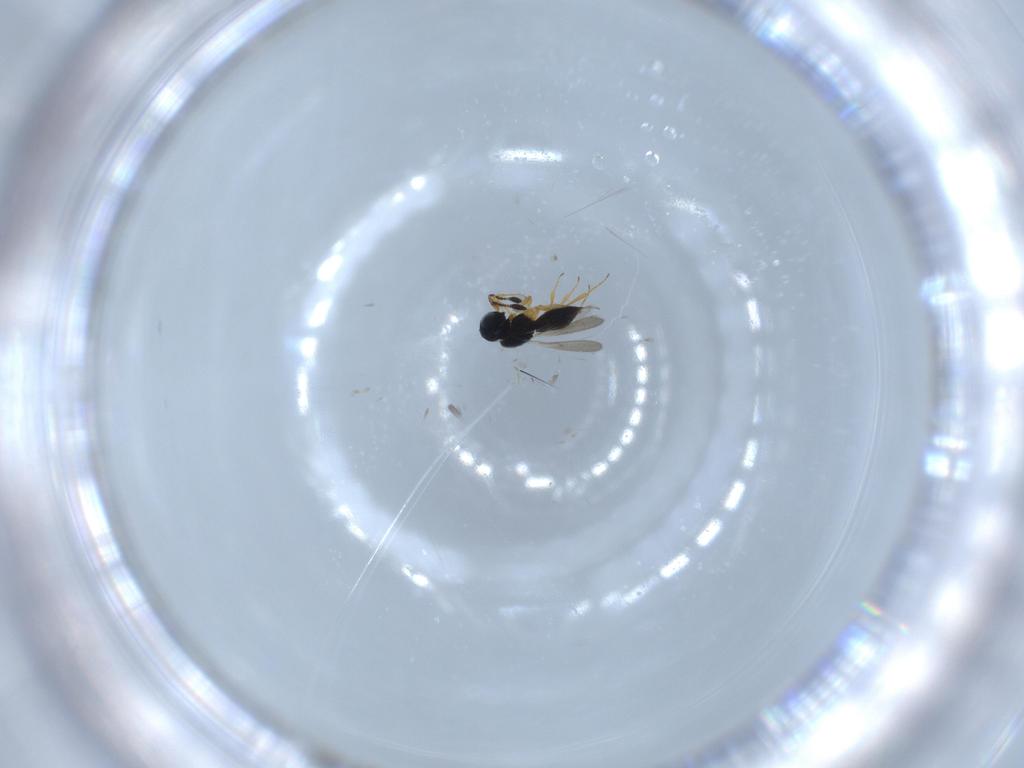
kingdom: Animalia
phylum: Arthropoda
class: Insecta
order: Hymenoptera
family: Scelionidae
